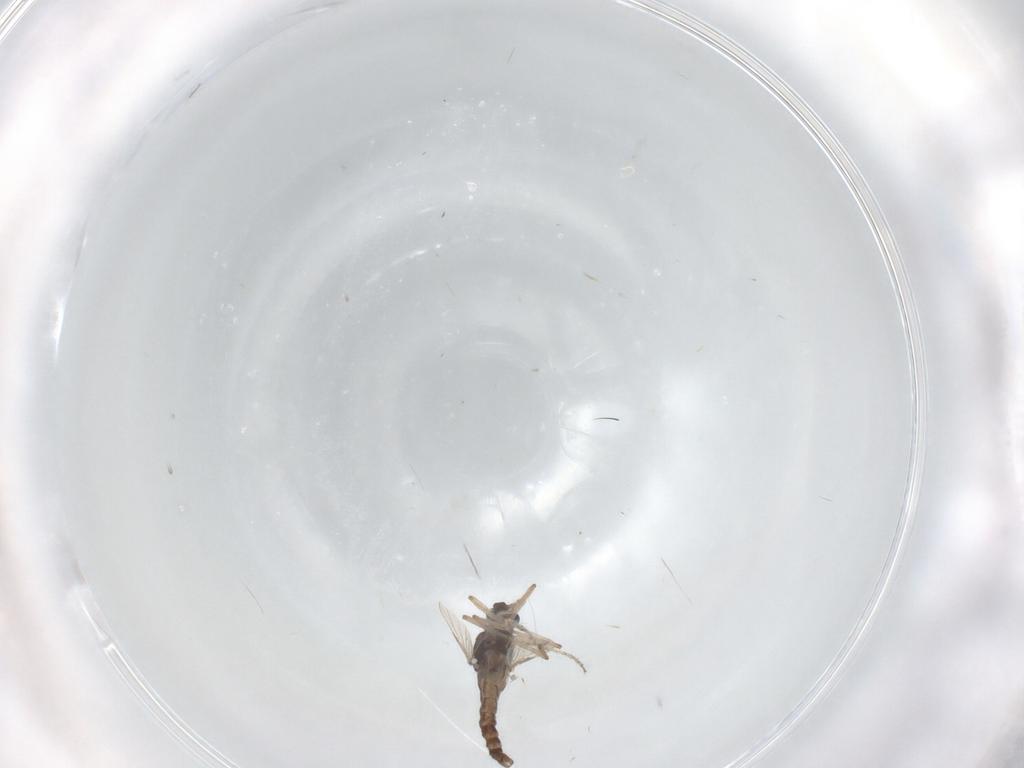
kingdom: Animalia
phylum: Arthropoda
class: Insecta
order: Diptera
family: Ceratopogonidae
